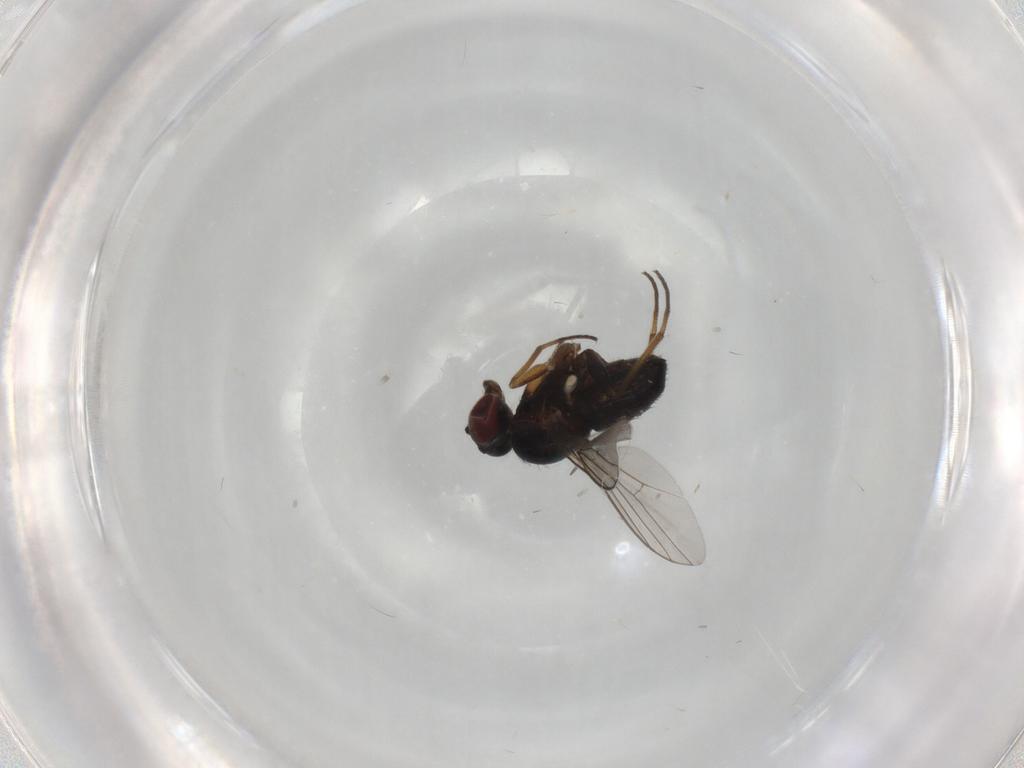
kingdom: Animalia
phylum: Arthropoda
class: Insecta
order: Diptera
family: Dolichopodidae
